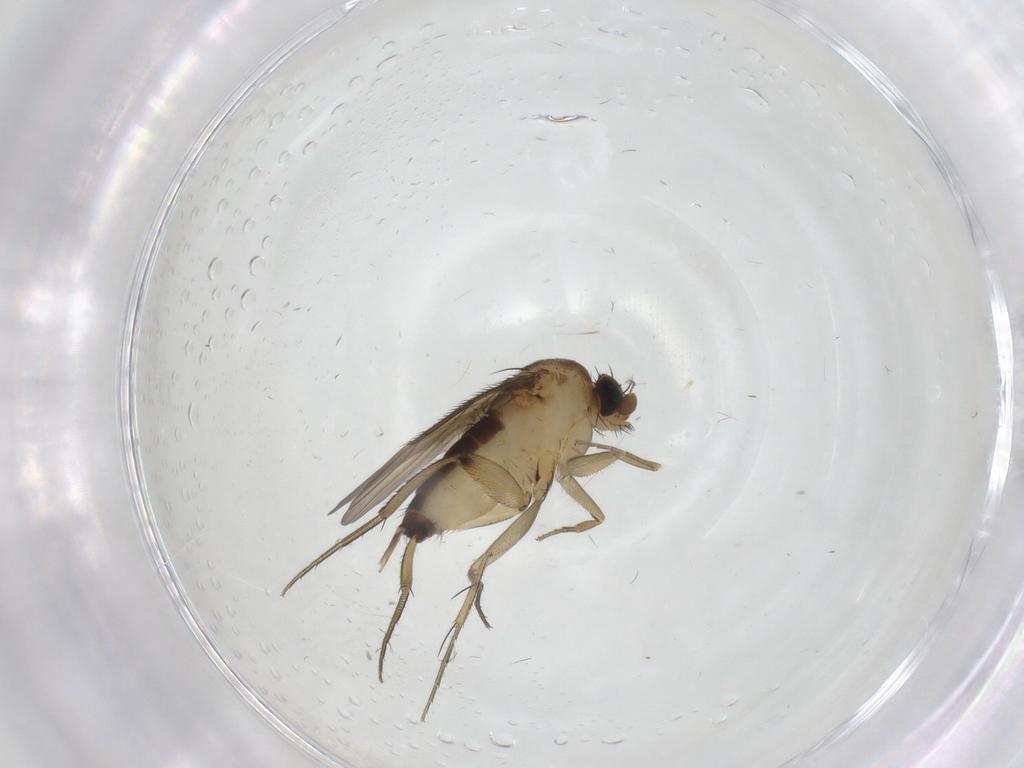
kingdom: Animalia
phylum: Arthropoda
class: Insecta
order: Diptera
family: Phoridae
